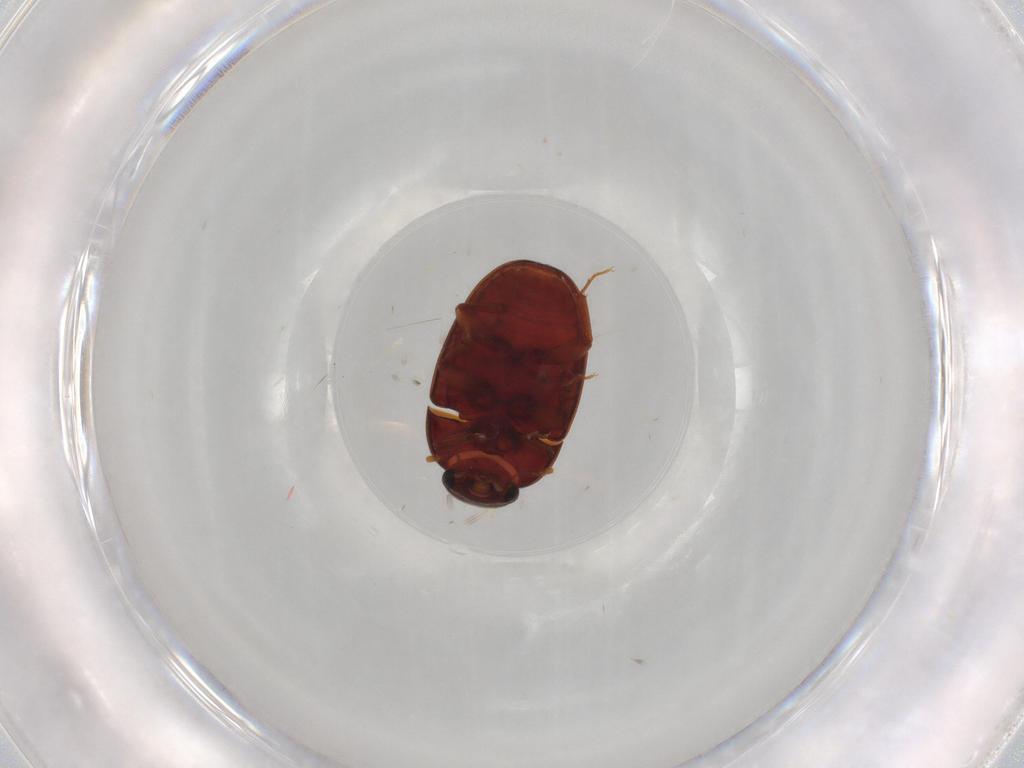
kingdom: Animalia
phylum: Arthropoda
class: Insecta
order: Coleoptera
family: Archeocrypticidae
